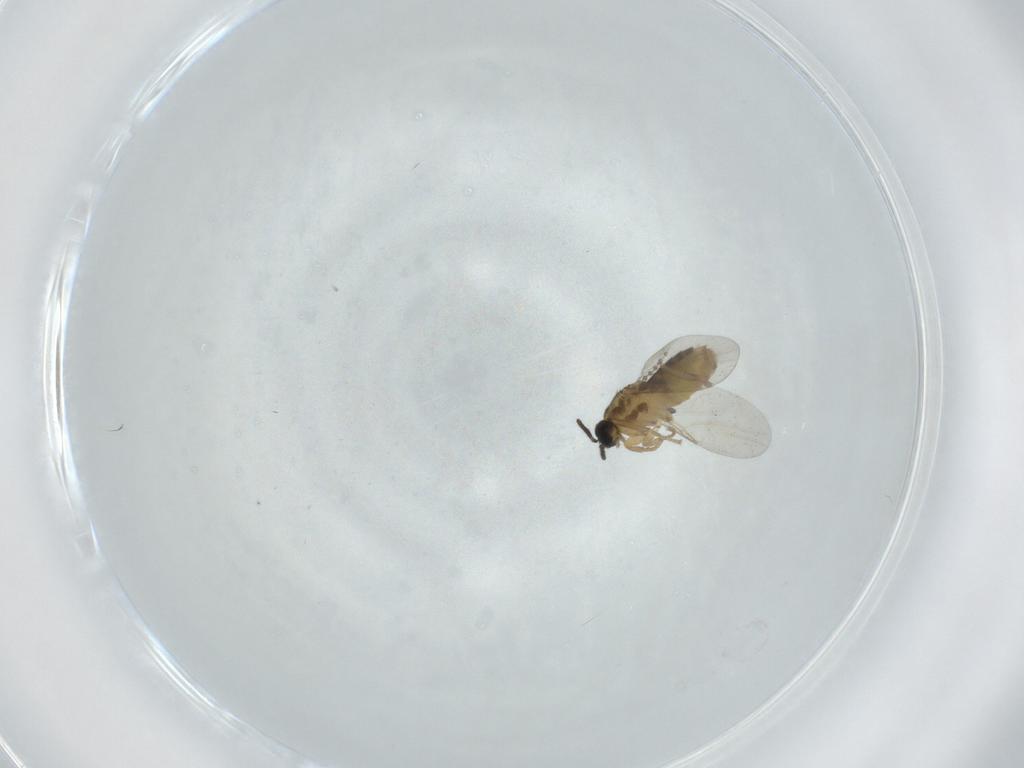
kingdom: Animalia
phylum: Arthropoda
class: Insecta
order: Diptera
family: Scatopsidae
